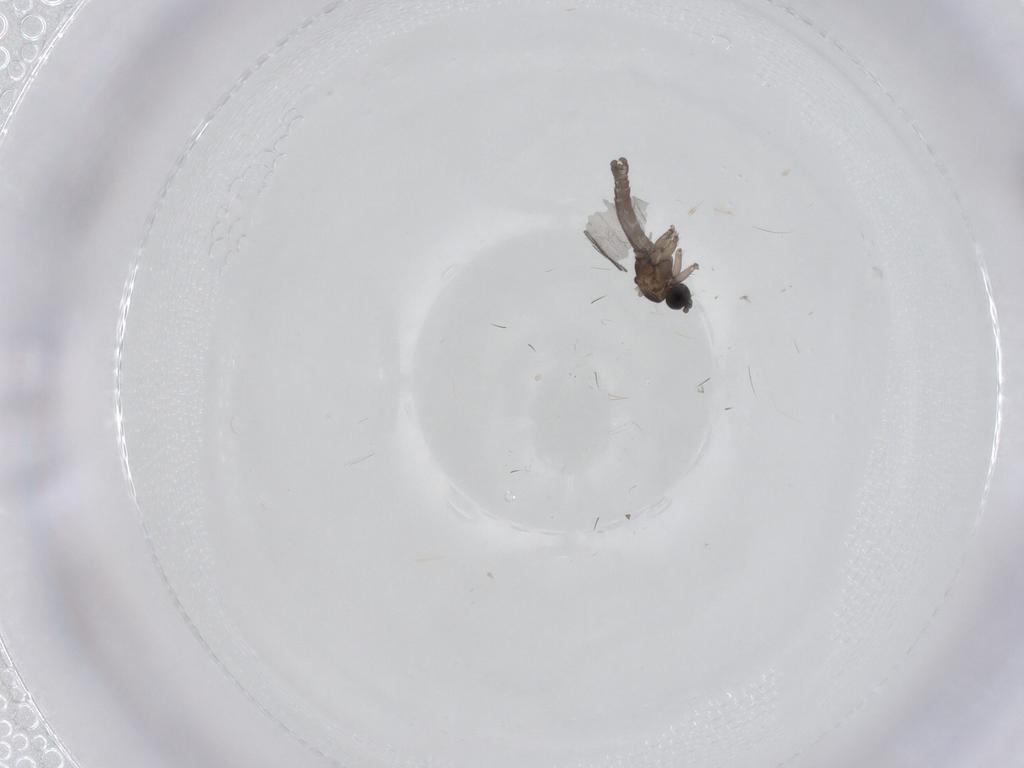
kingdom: Animalia
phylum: Arthropoda
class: Insecta
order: Diptera
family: Sciaridae
